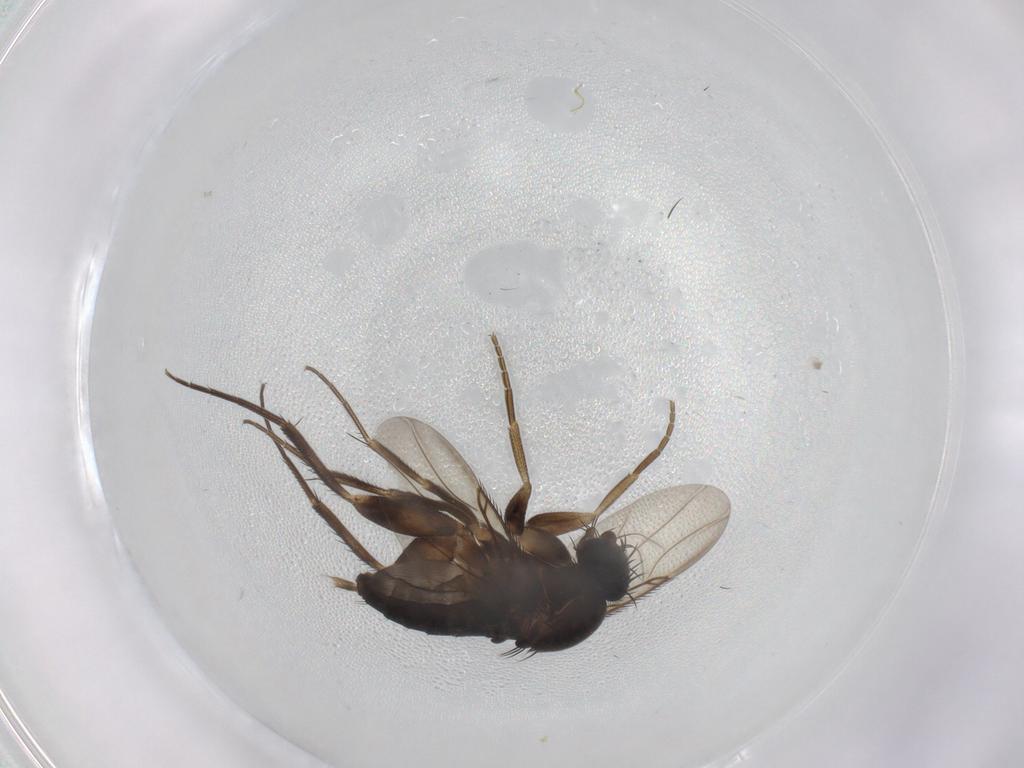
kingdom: Animalia
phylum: Arthropoda
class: Insecta
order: Diptera
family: Phoridae
